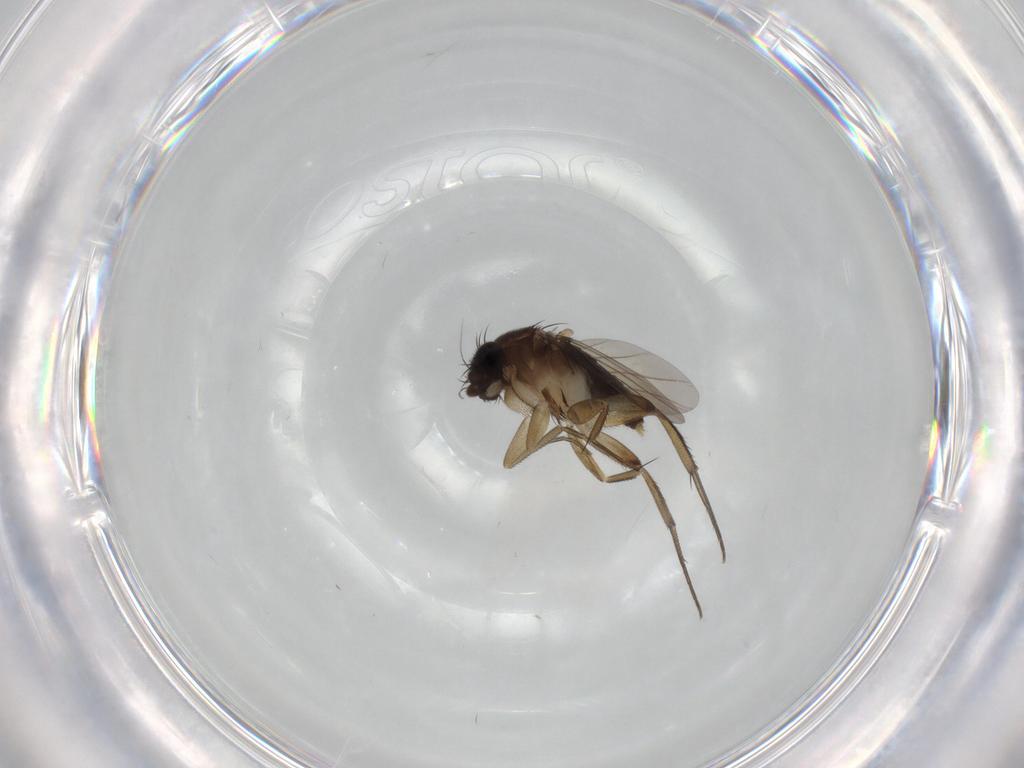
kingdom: Animalia
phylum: Arthropoda
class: Insecta
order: Diptera
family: Phoridae
